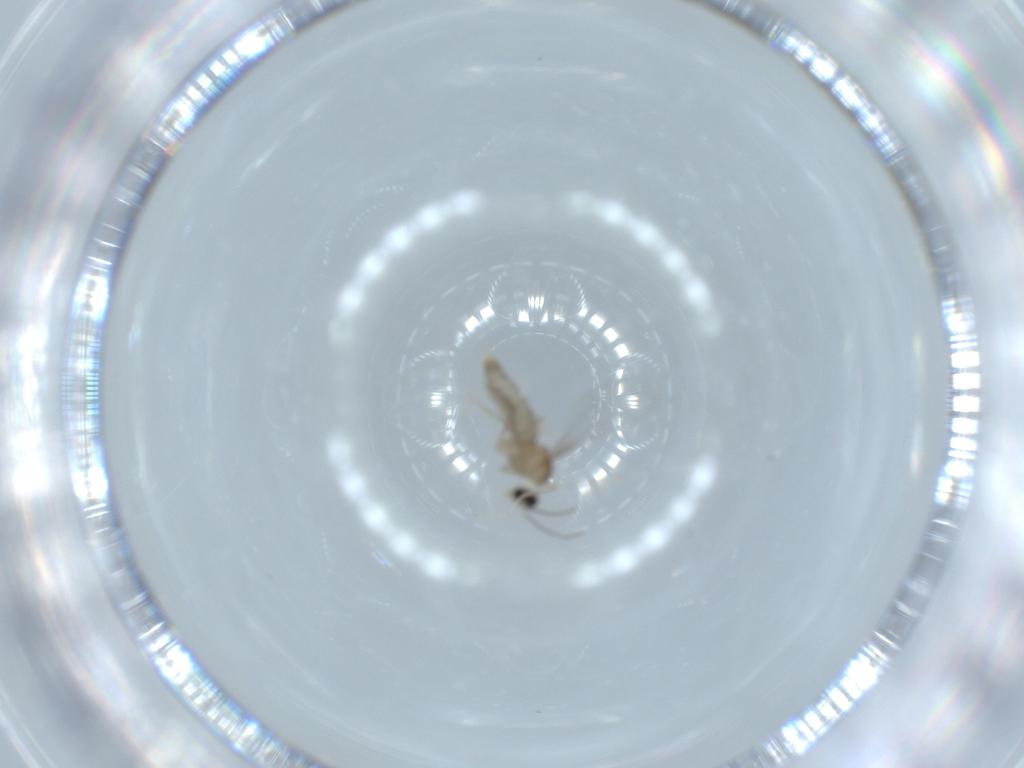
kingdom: Animalia
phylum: Arthropoda
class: Insecta
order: Diptera
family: Cecidomyiidae
